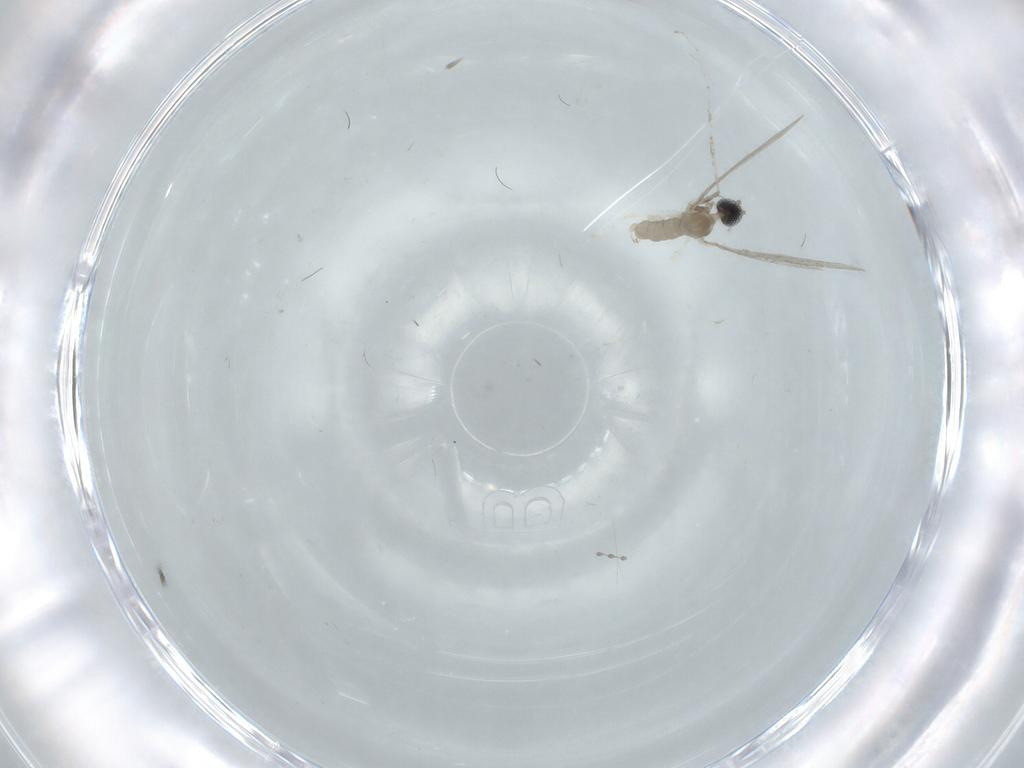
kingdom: Animalia
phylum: Arthropoda
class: Insecta
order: Diptera
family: Cecidomyiidae
